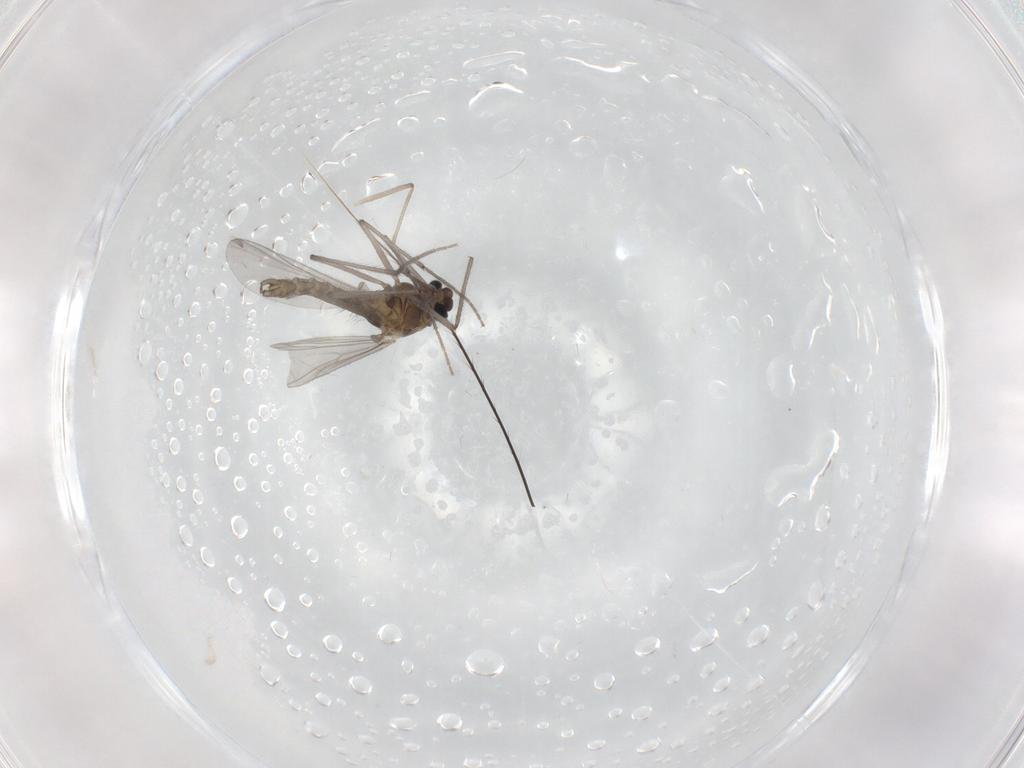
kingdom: Animalia
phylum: Arthropoda
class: Insecta
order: Diptera
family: Chironomidae
